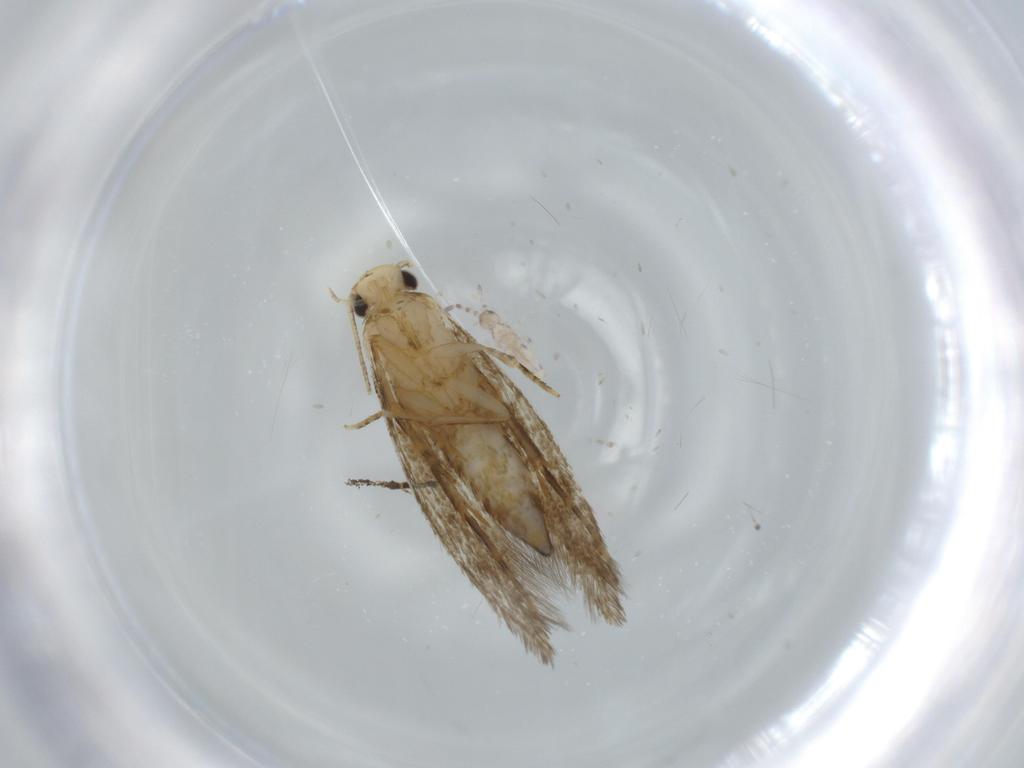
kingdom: Animalia
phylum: Arthropoda
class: Insecta
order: Lepidoptera
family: Tineidae
